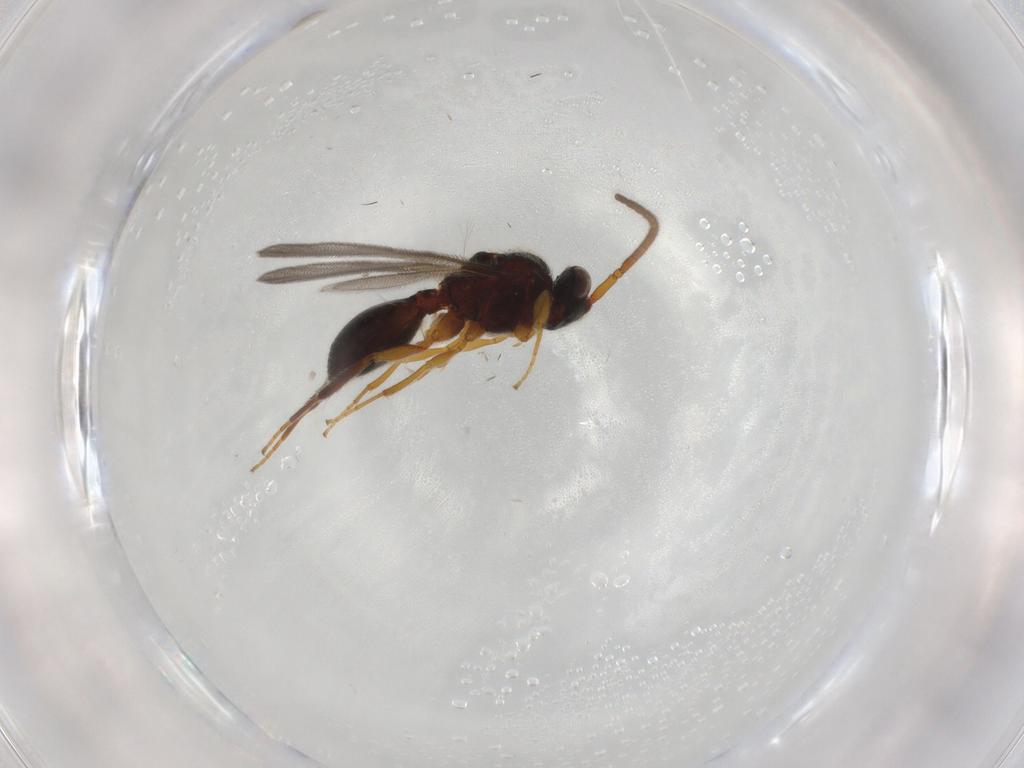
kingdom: Animalia
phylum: Arthropoda
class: Insecta
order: Hymenoptera
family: Diapriidae
